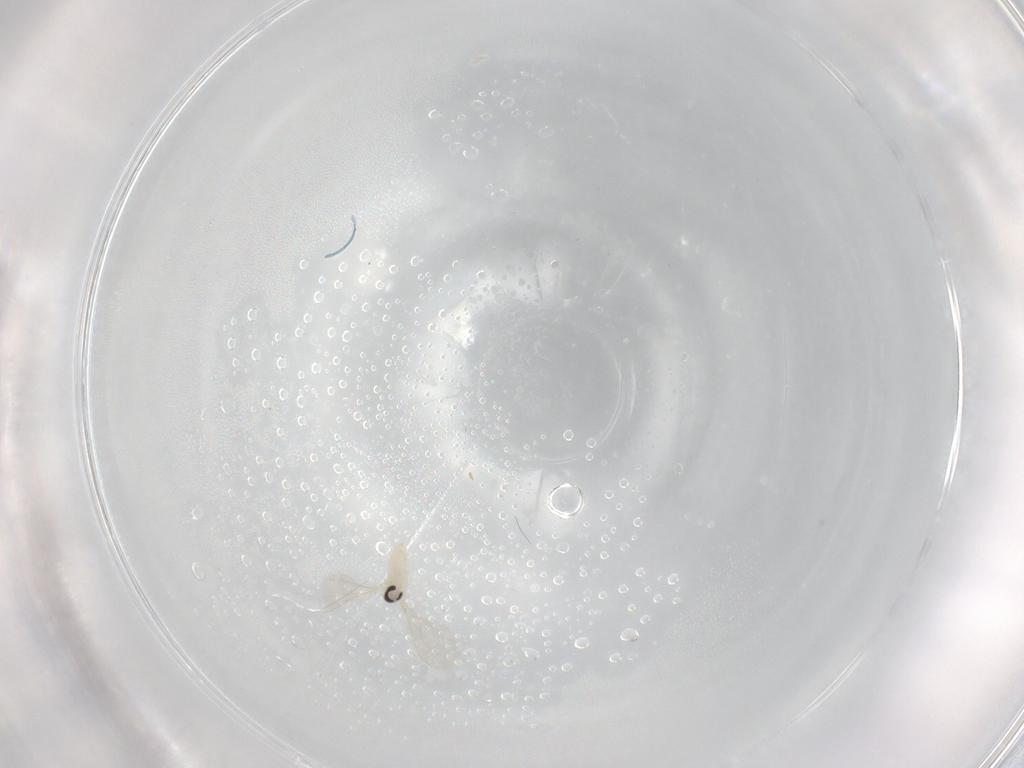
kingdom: Animalia
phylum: Arthropoda
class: Insecta
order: Diptera
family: Cecidomyiidae
